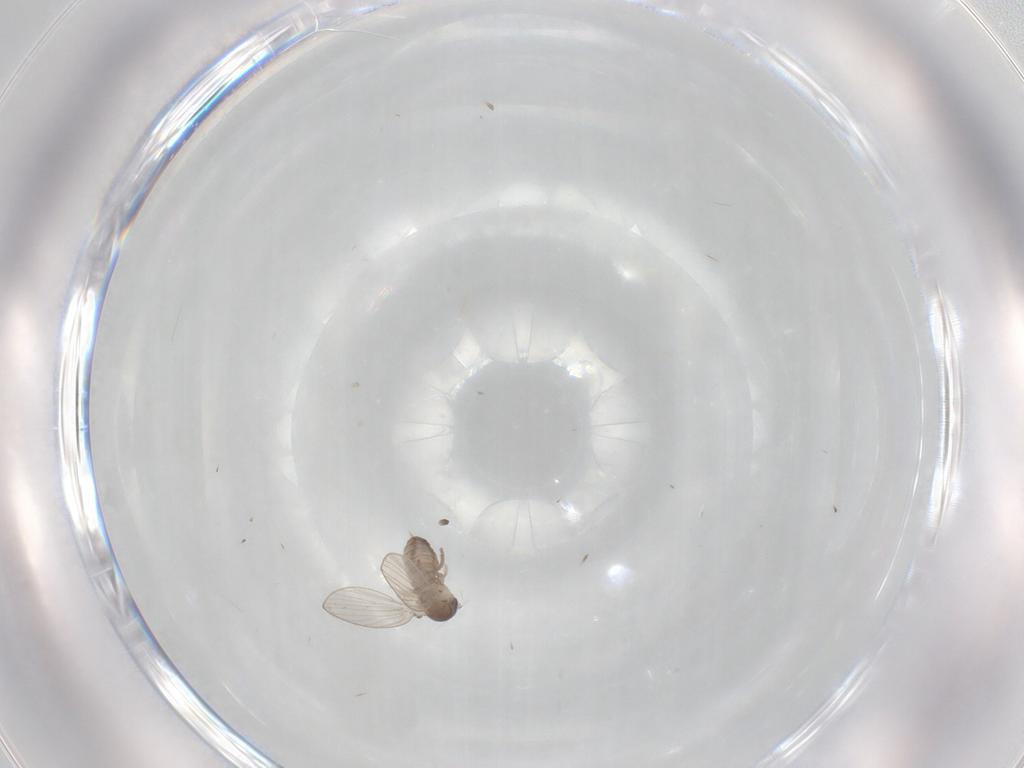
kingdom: Animalia
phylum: Arthropoda
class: Insecta
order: Diptera
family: Psychodidae
